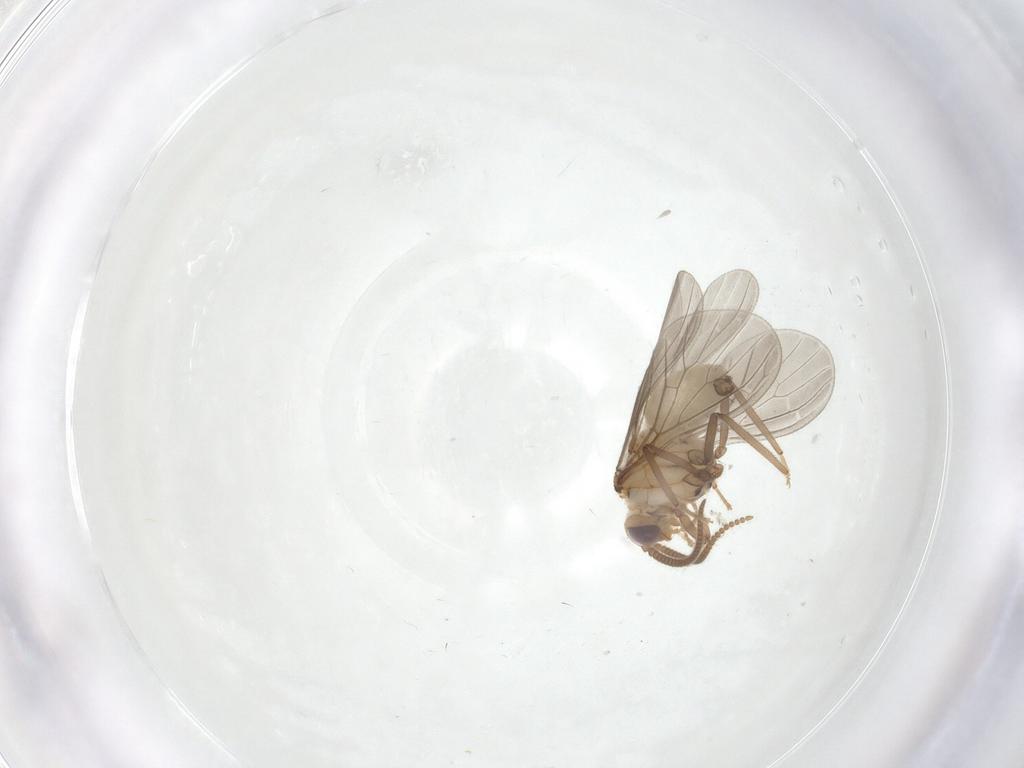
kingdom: Animalia
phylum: Arthropoda
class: Insecta
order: Neuroptera
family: Coniopterygidae
